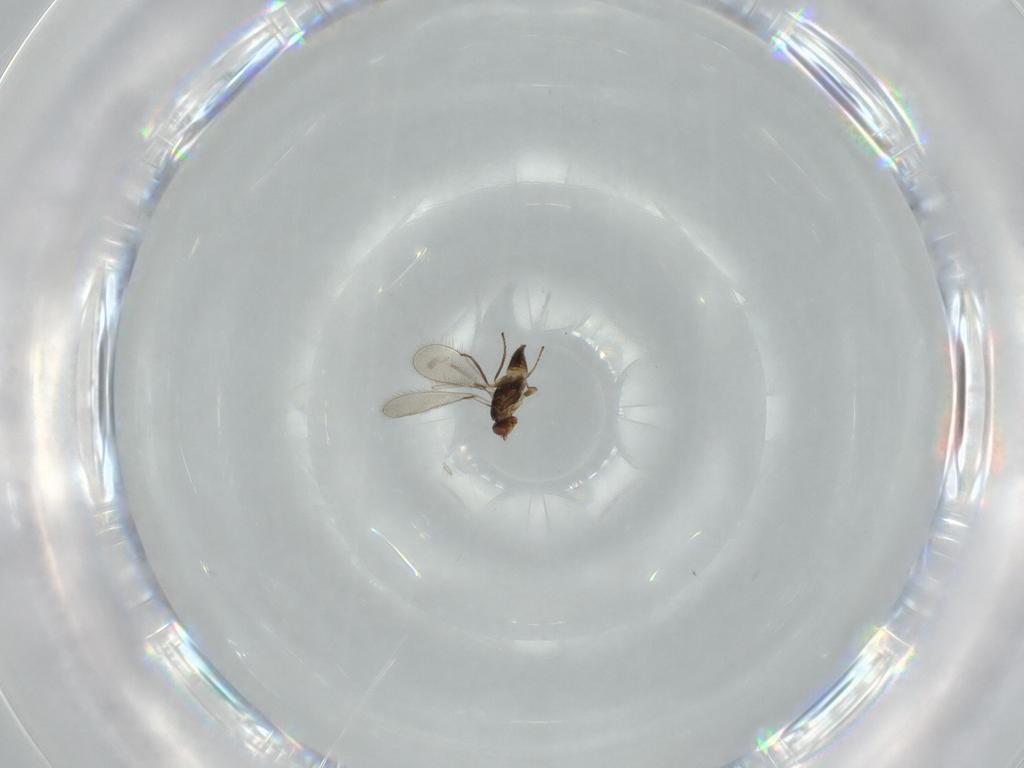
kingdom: Animalia
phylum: Arthropoda
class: Insecta
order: Hymenoptera
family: Mymaridae
